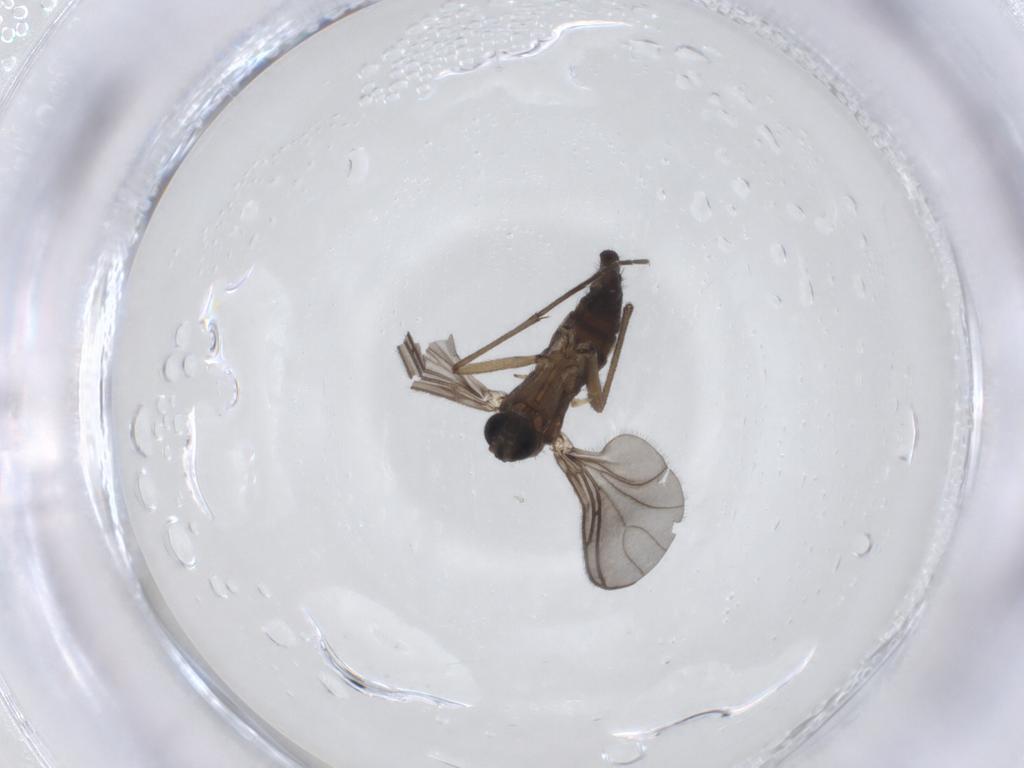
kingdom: Animalia
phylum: Arthropoda
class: Insecta
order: Diptera
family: Sciaridae
